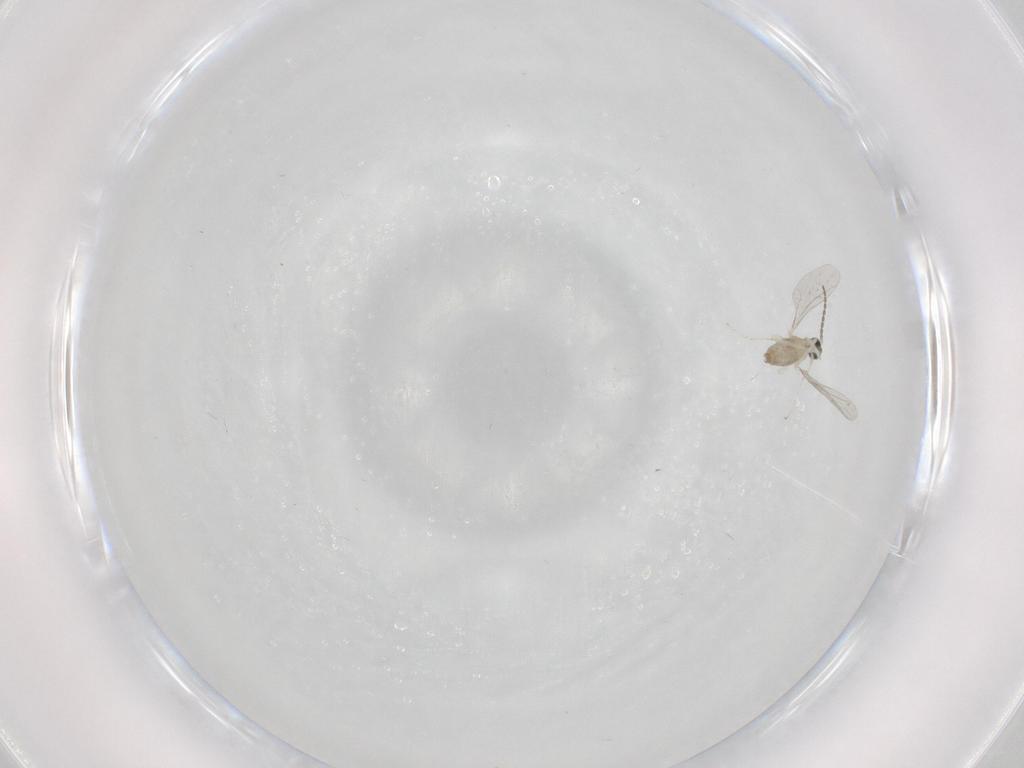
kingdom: Animalia
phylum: Arthropoda
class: Insecta
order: Diptera
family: Cecidomyiidae
